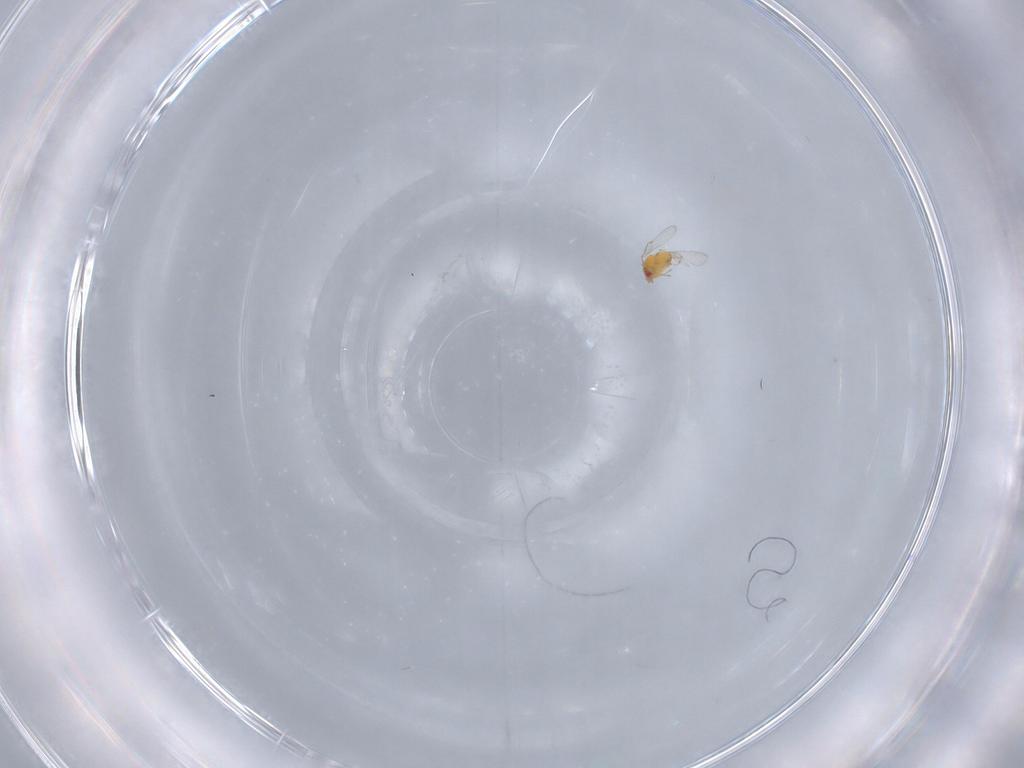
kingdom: Animalia
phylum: Arthropoda
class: Insecta
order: Hymenoptera
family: Trichogrammatidae
